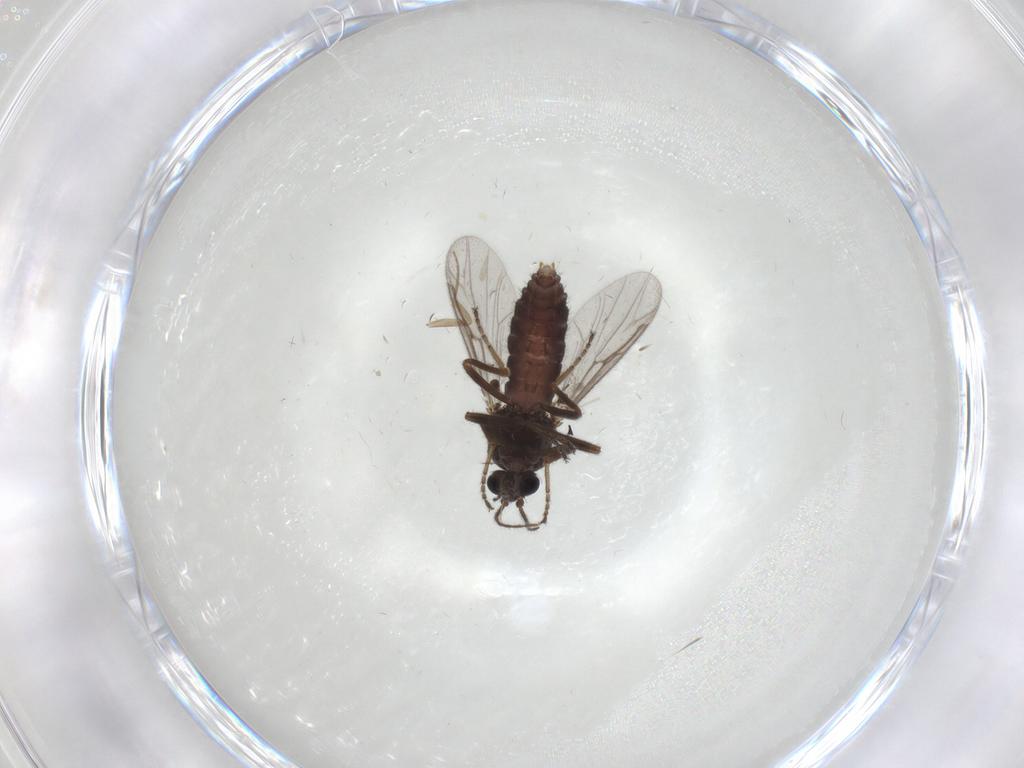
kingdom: Animalia
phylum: Arthropoda
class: Insecta
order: Diptera
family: Ceratopogonidae
